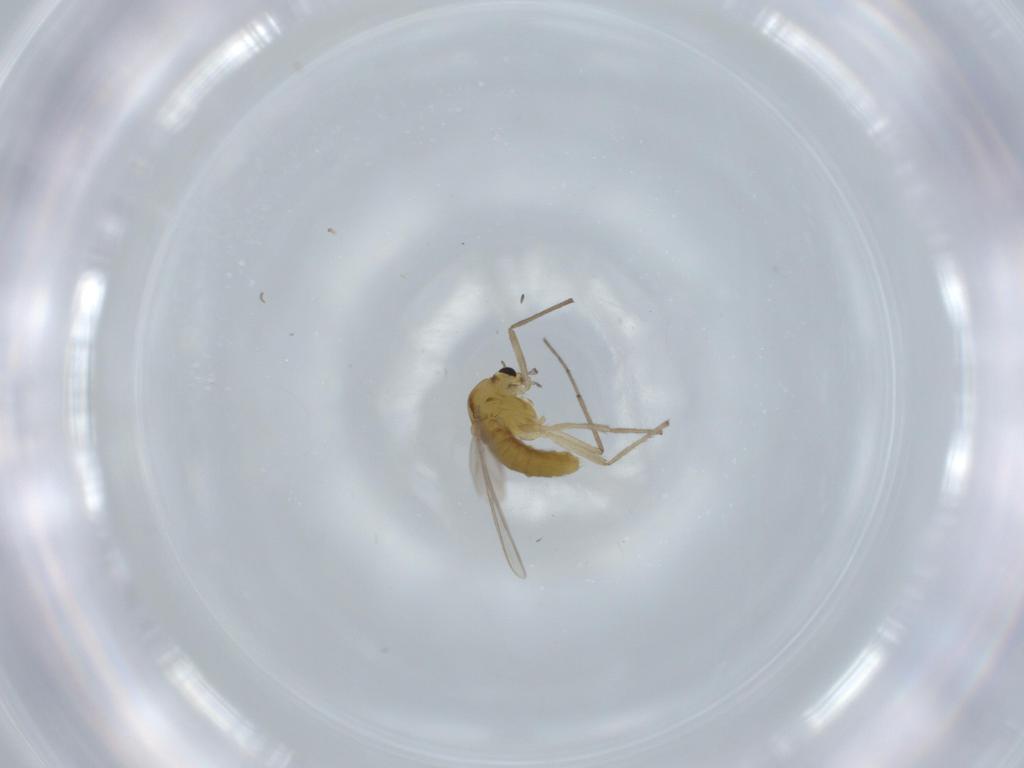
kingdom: Animalia
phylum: Arthropoda
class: Insecta
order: Diptera
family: Chironomidae
